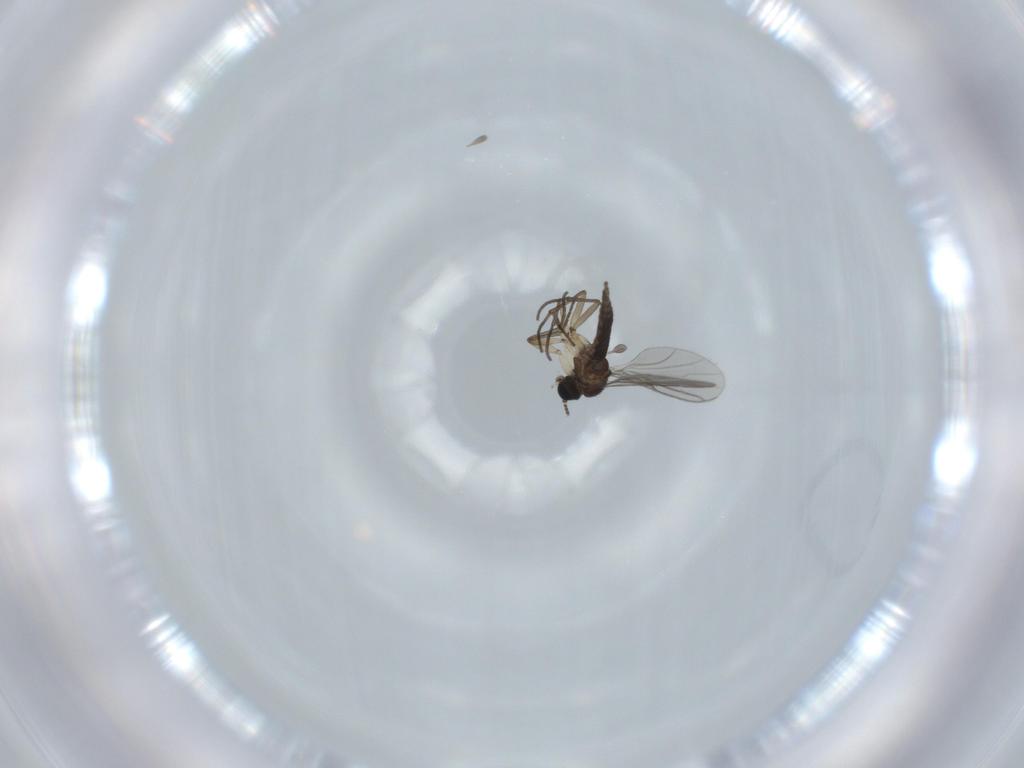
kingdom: Animalia
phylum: Arthropoda
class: Insecta
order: Diptera
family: Sciaridae
